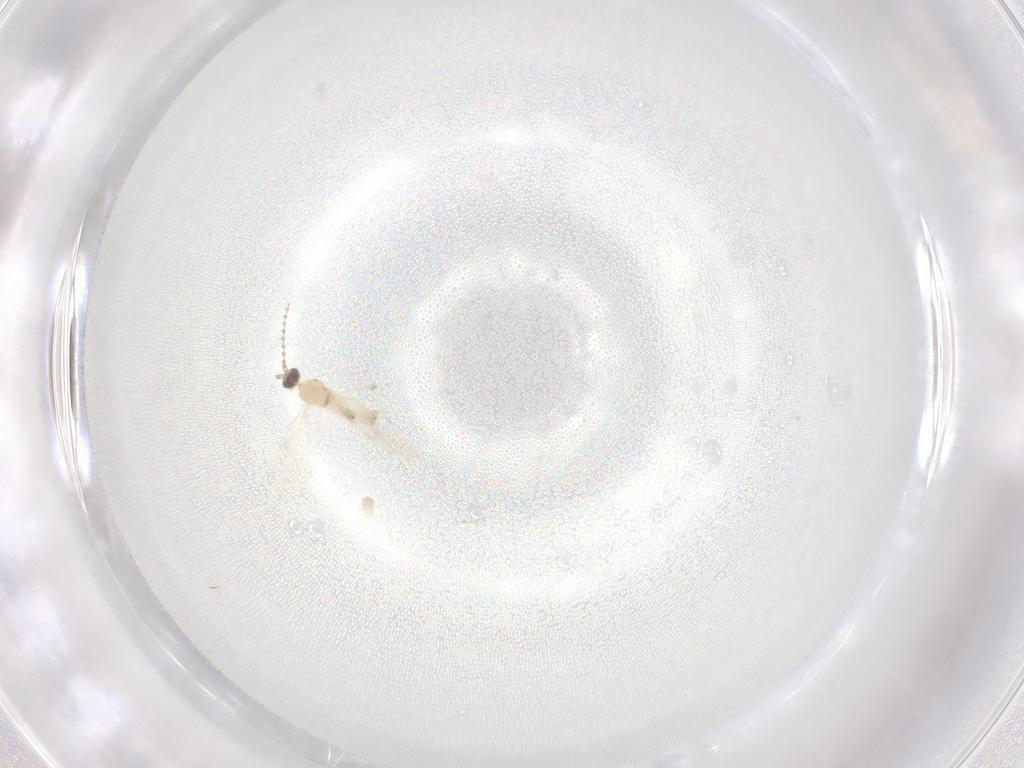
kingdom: Animalia
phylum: Arthropoda
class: Insecta
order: Diptera
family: Cecidomyiidae
